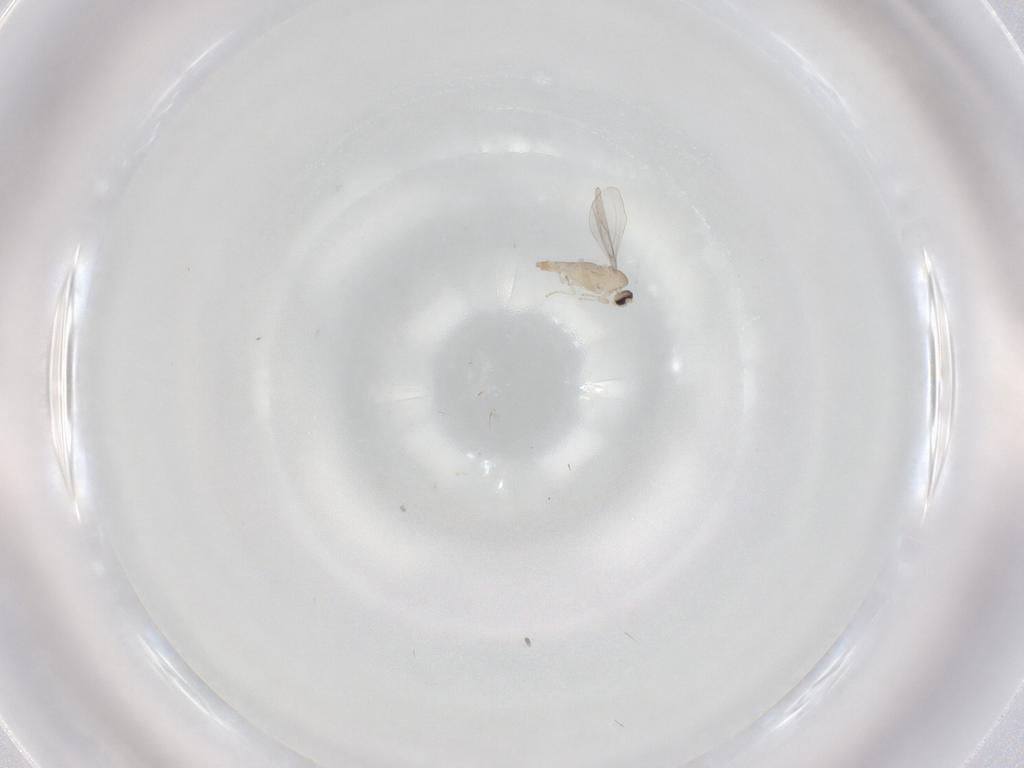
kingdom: Animalia
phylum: Arthropoda
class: Insecta
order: Diptera
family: Cecidomyiidae
